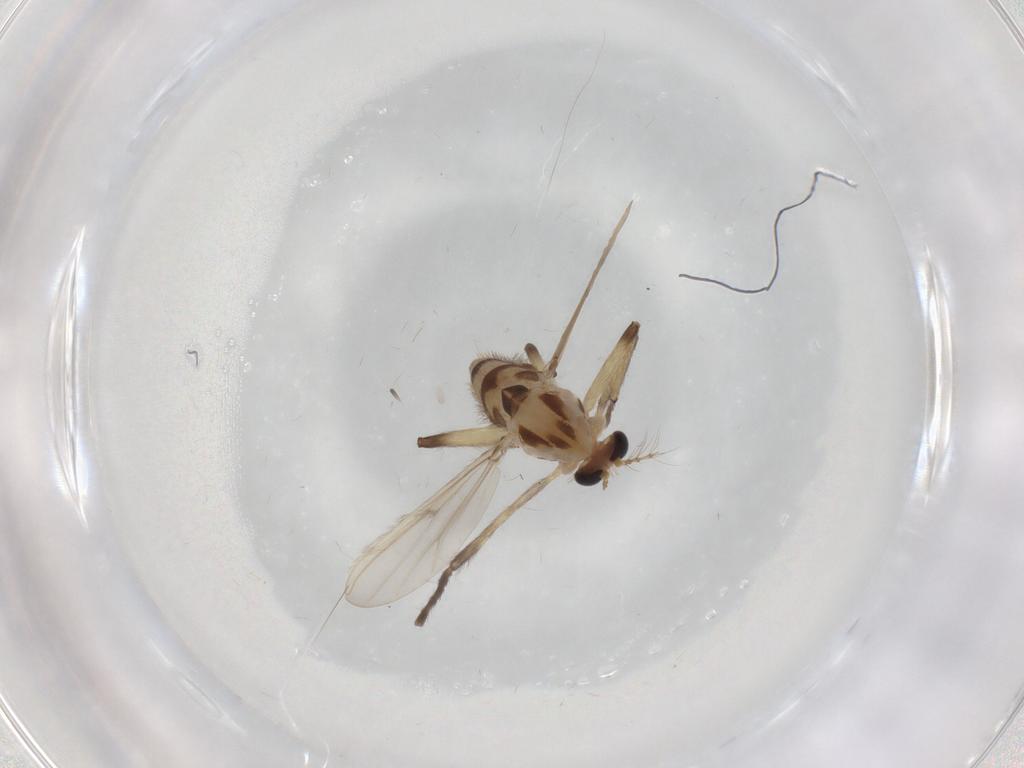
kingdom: Animalia
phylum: Arthropoda
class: Insecta
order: Diptera
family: Chironomidae
